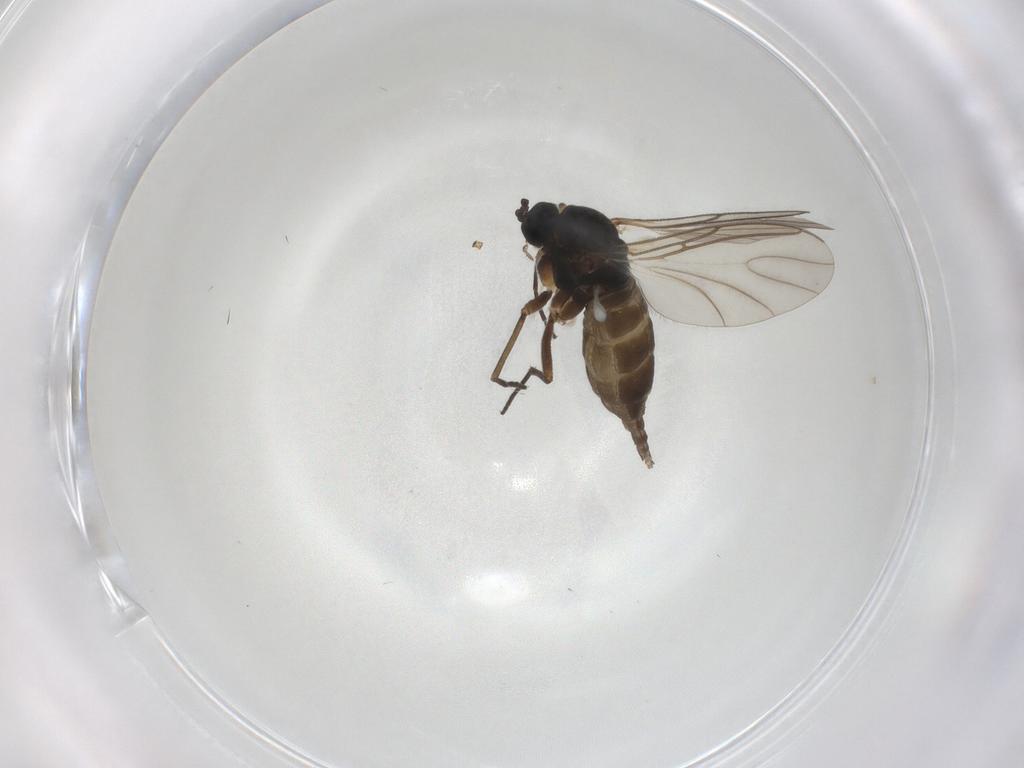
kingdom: Animalia
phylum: Arthropoda
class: Insecta
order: Diptera
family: Sciaridae
